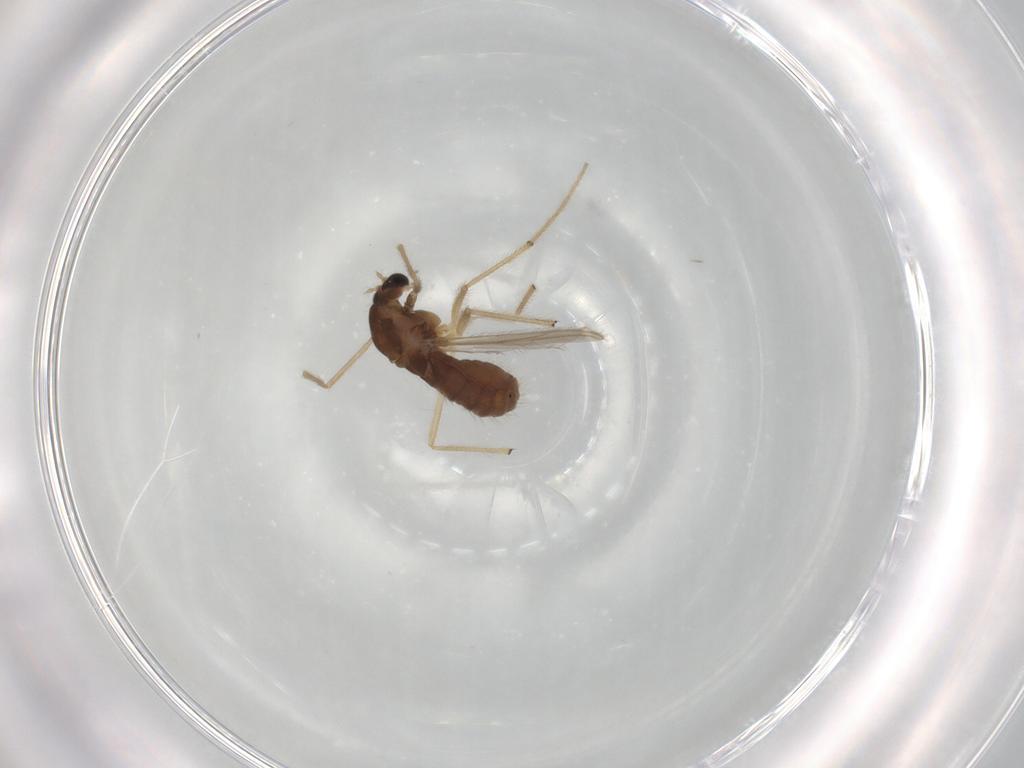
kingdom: Animalia
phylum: Arthropoda
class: Insecta
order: Diptera
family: Chironomidae
